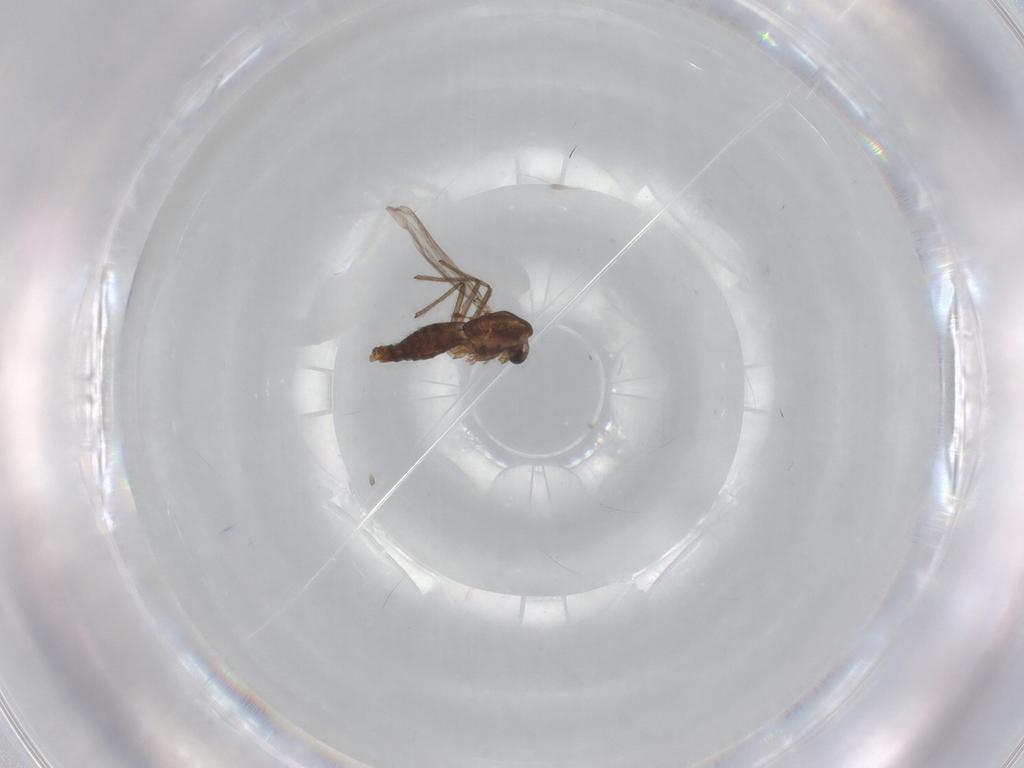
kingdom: Animalia
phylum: Arthropoda
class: Insecta
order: Diptera
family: Chironomidae
